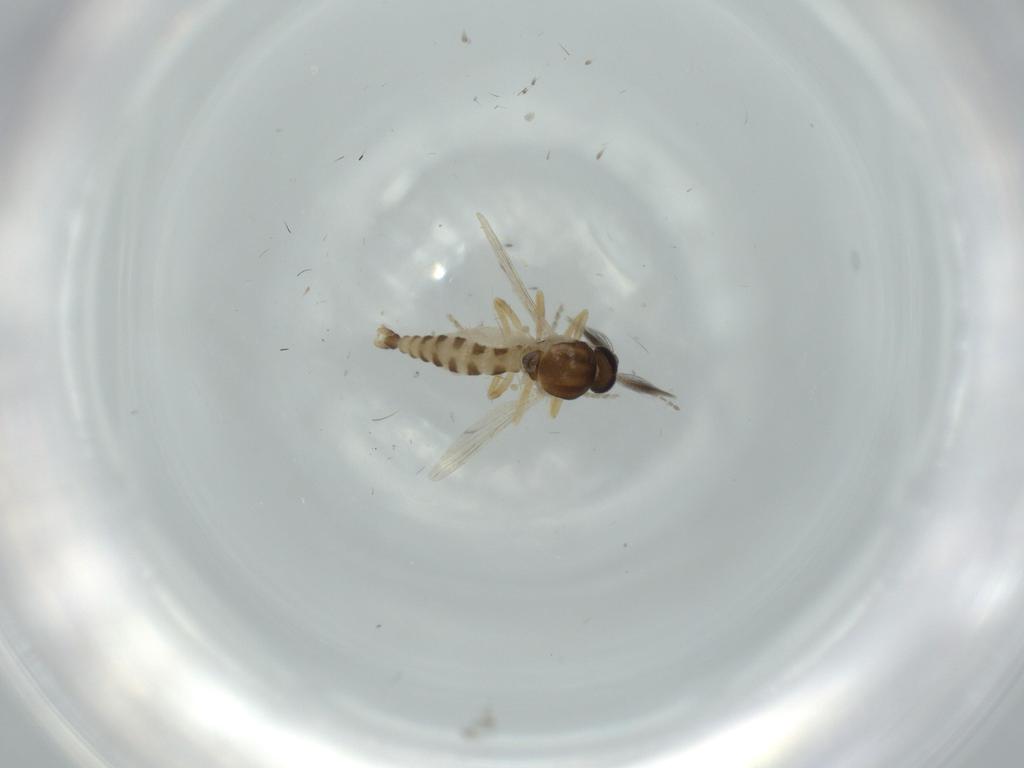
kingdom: Animalia
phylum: Arthropoda
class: Insecta
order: Diptera
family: Ceratopogonidae
